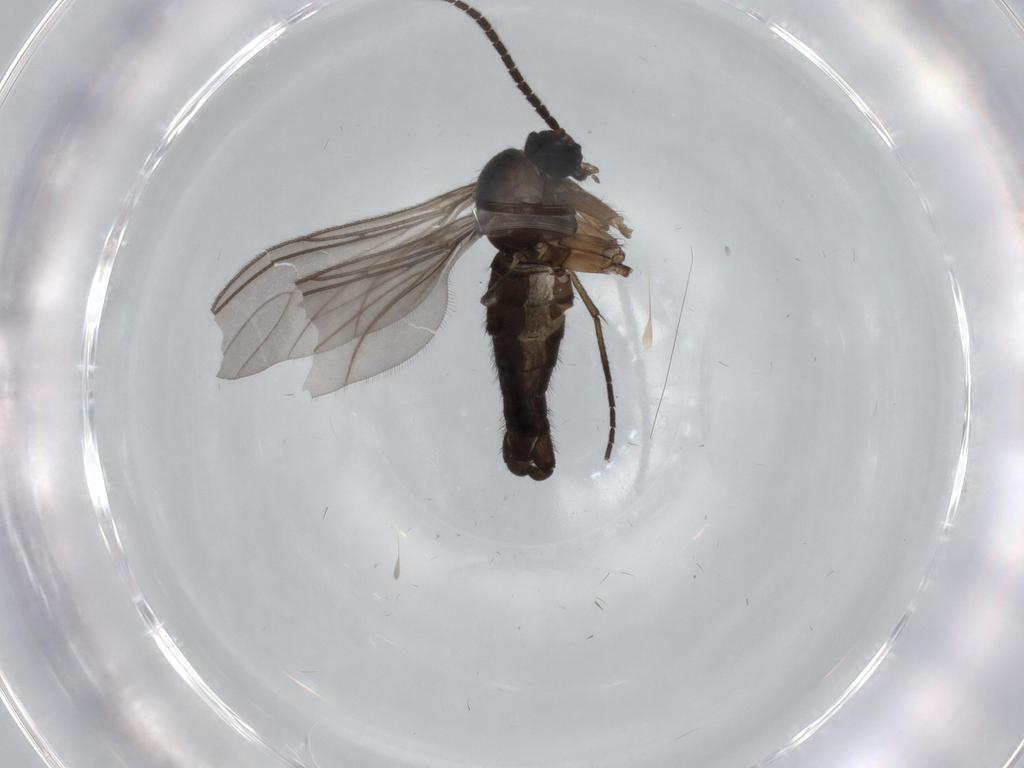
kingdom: Animalia
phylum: Arthropoda
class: Insecta
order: Diptera
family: Sciaridae
